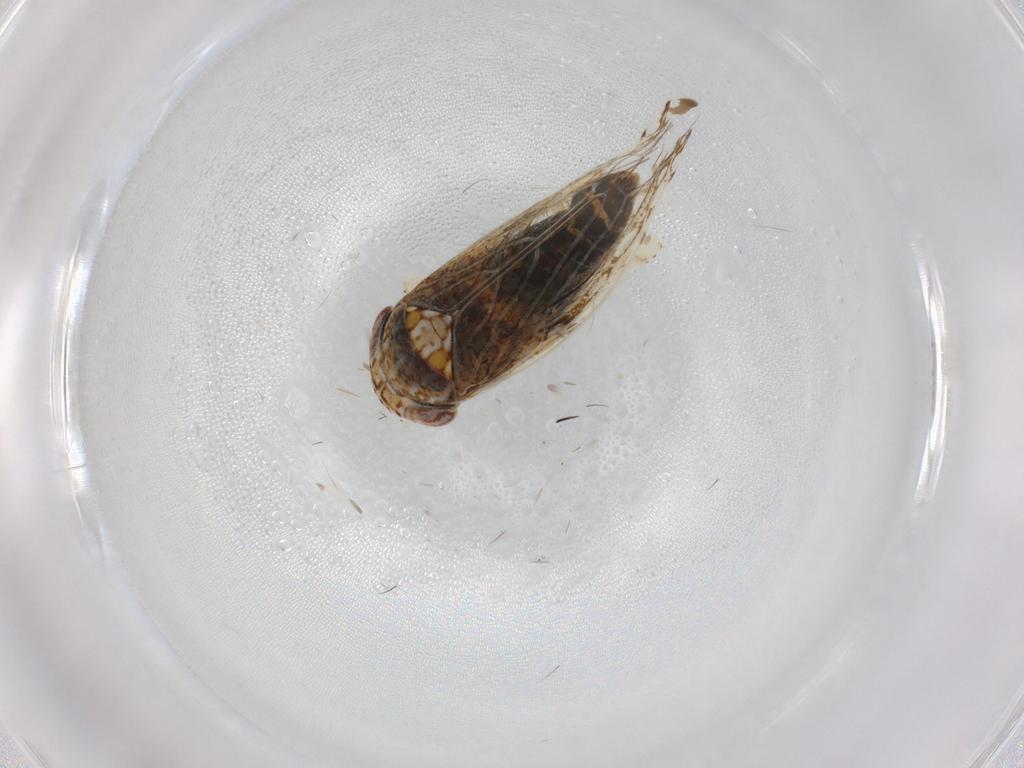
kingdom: Animalia
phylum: Arthropoda
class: Insecta
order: Hemiptera
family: Cicadellidae
